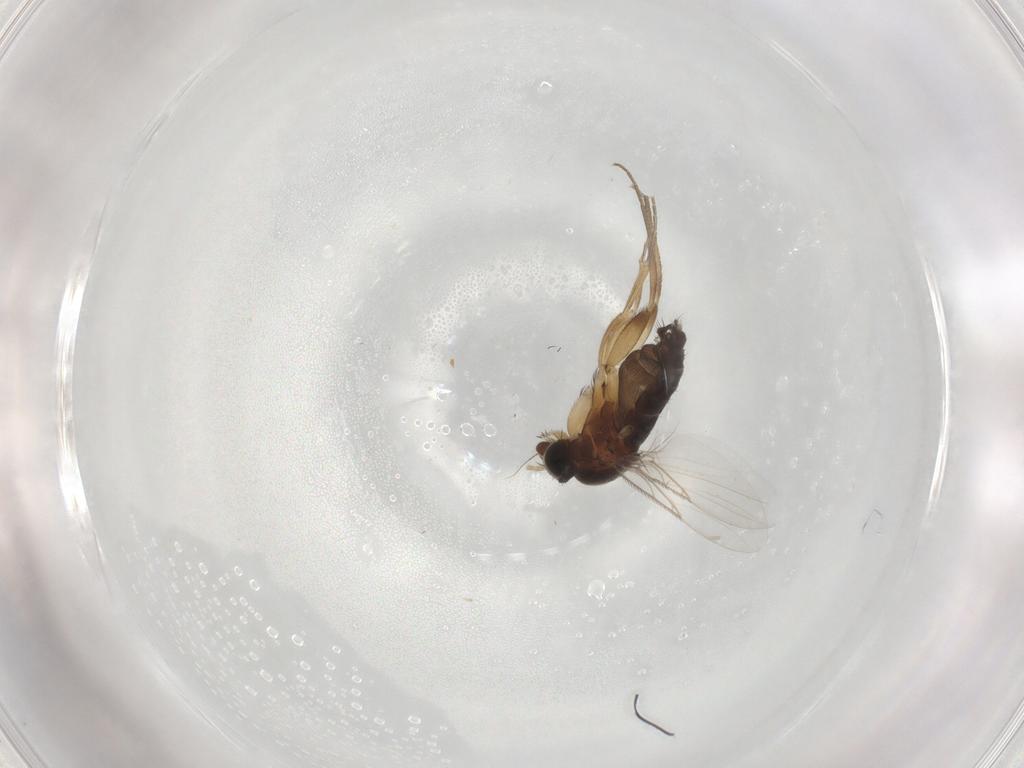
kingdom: Animalia
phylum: Arthropoda
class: Insecta
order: Diptera
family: Phoridae
